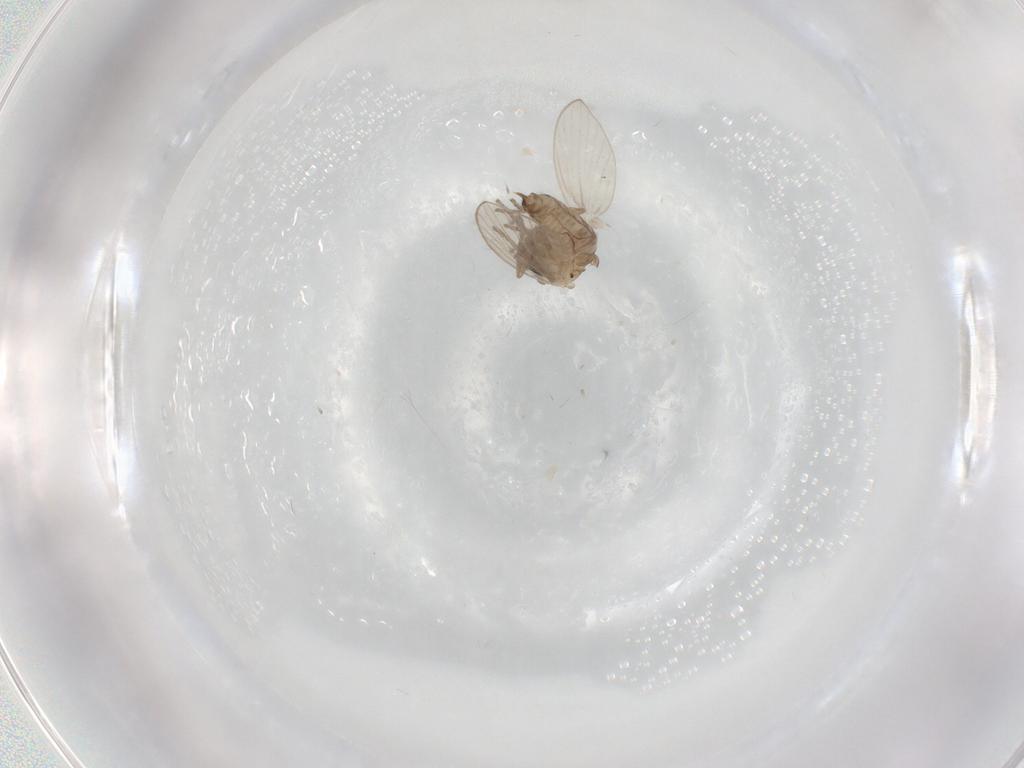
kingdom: Animalia
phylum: Arthropoda
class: Insecta
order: Diptera
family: Psychodidae
